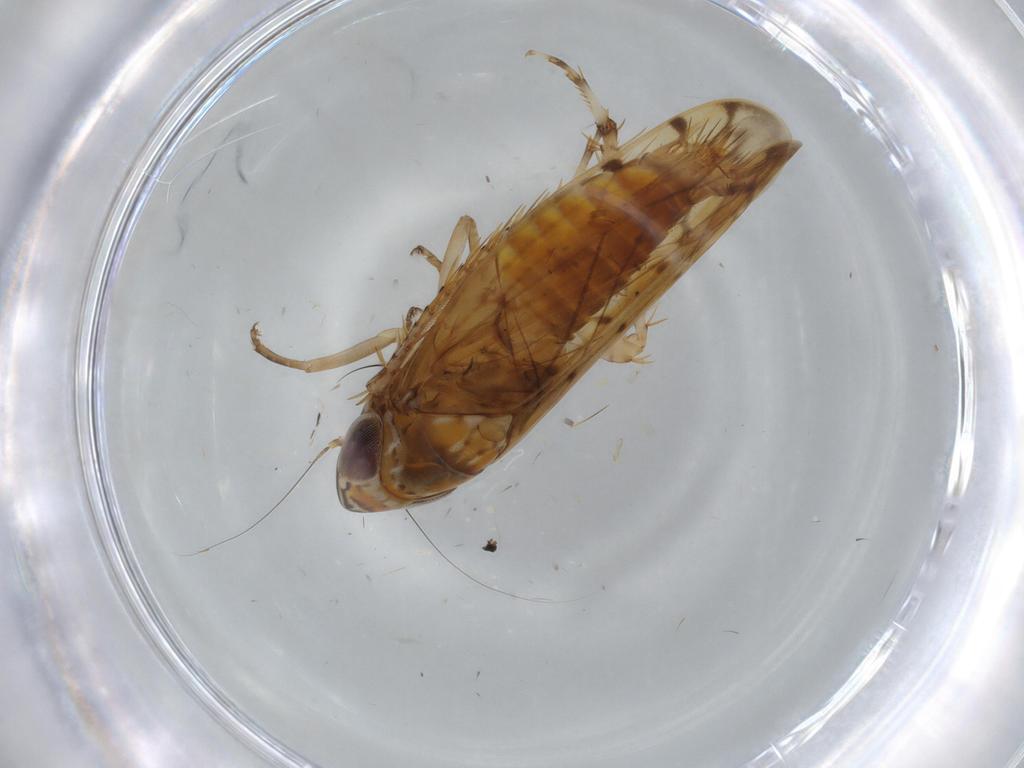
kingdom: Animalia
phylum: Arthropoda
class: Insecta
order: Hemiptera
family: Cicadellidae
